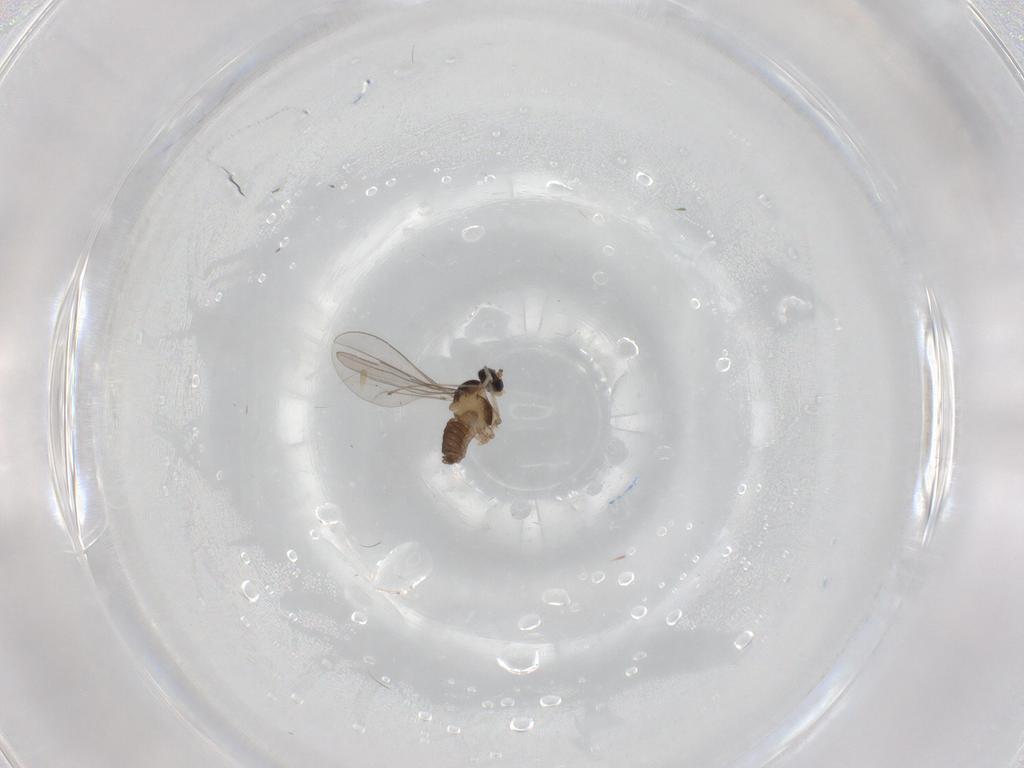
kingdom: Animalia
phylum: Arthropoda
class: Insecta
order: Diptera
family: Cecidomyiidae
